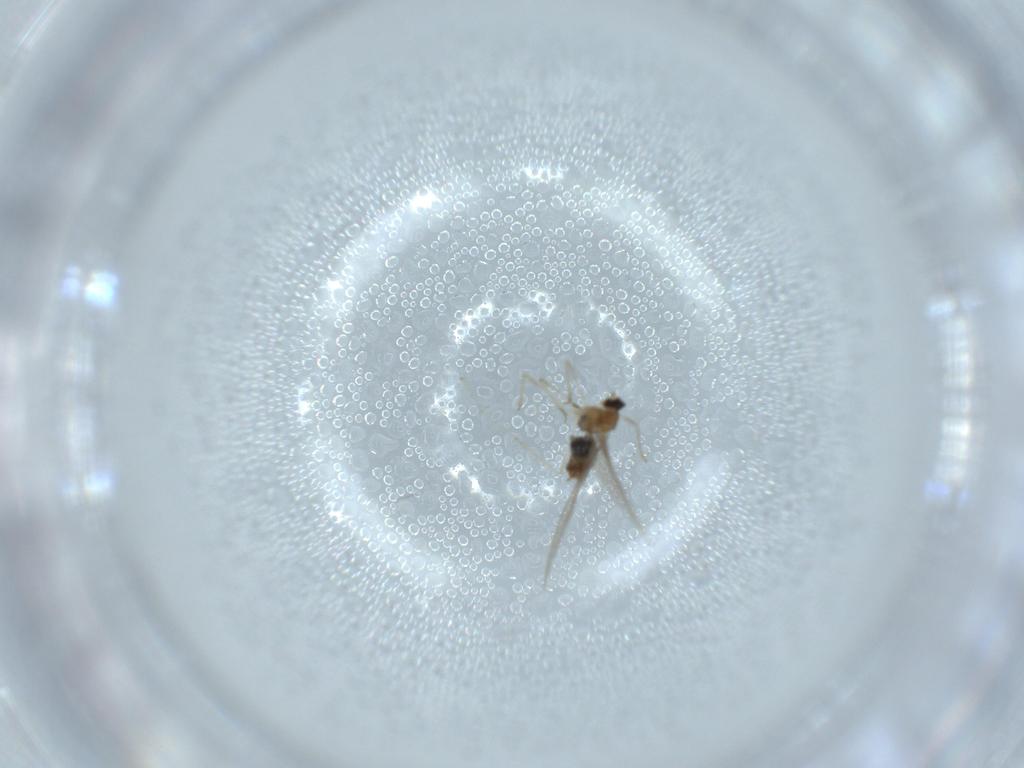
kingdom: Animalia
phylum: Arthropoda
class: Insecta
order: Diptera
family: Cecidomyiidae
